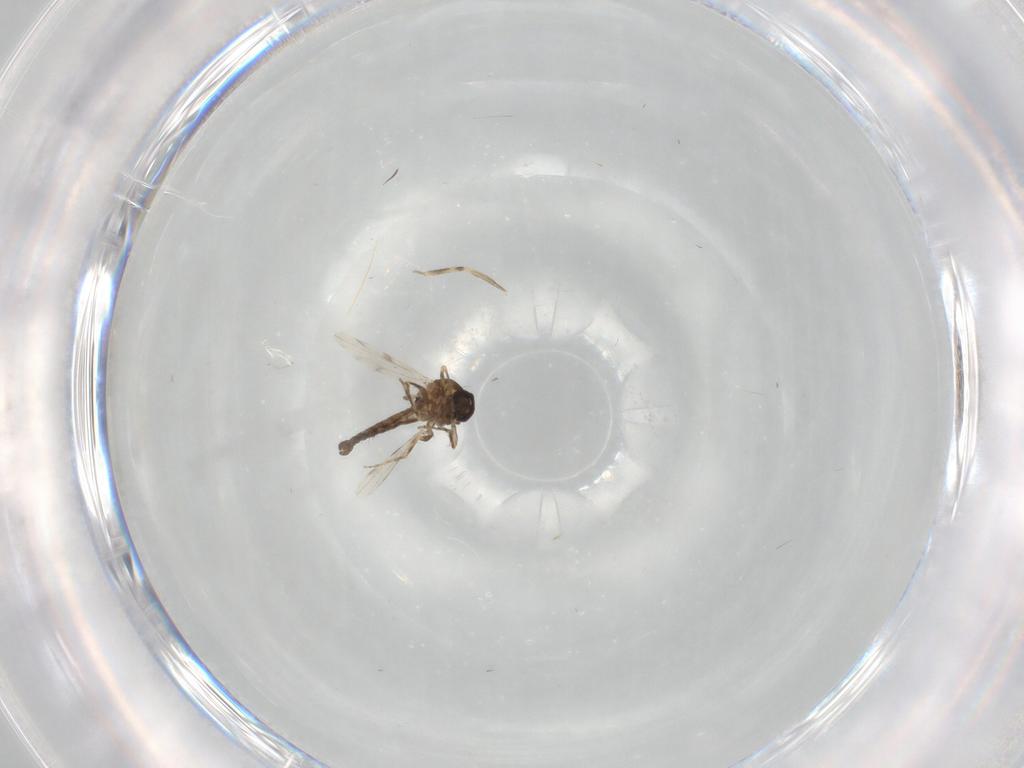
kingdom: Animalia
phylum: Arthropoda
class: Insecta
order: Diptera
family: Ceratopogonidae
